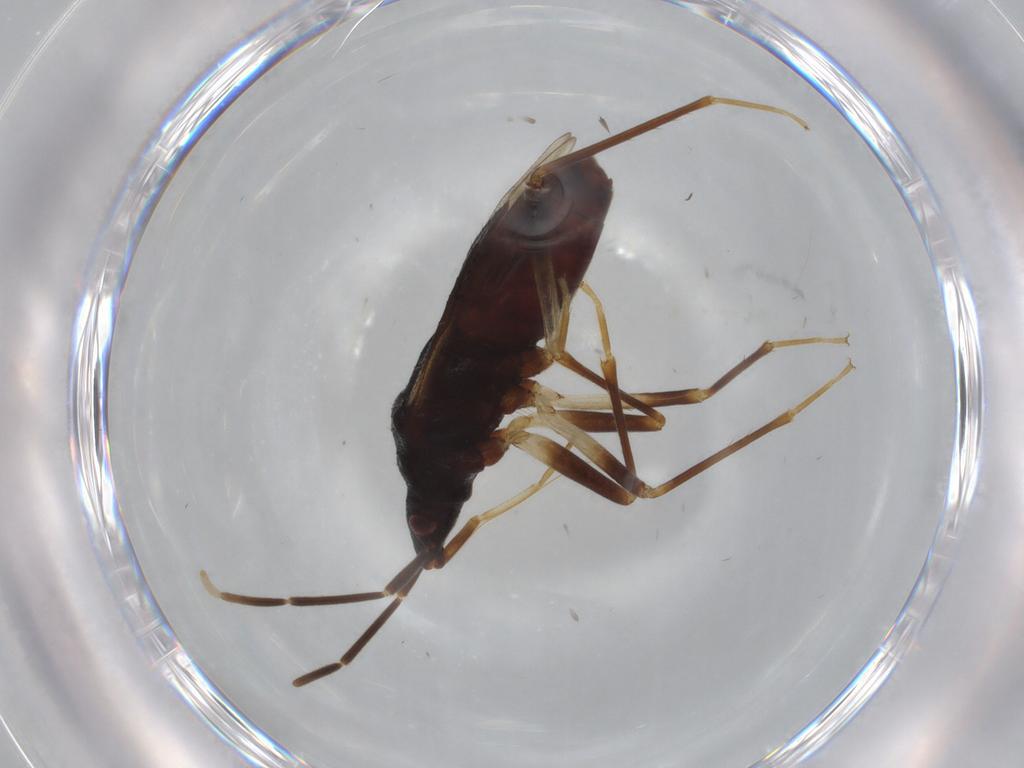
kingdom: Animalia
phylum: Arthropoda
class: Insecta
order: Hemiptera
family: Rhyparochromidae
